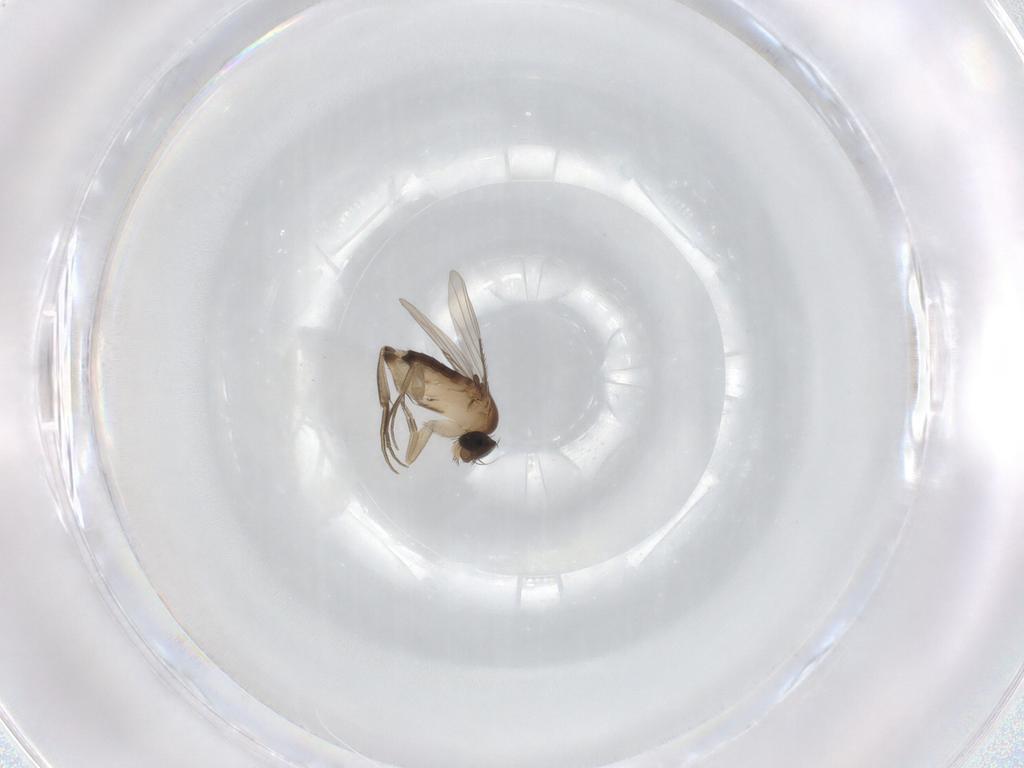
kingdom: Animalia
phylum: Arthropoda
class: Insecta
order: Diptera
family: Phoridae
